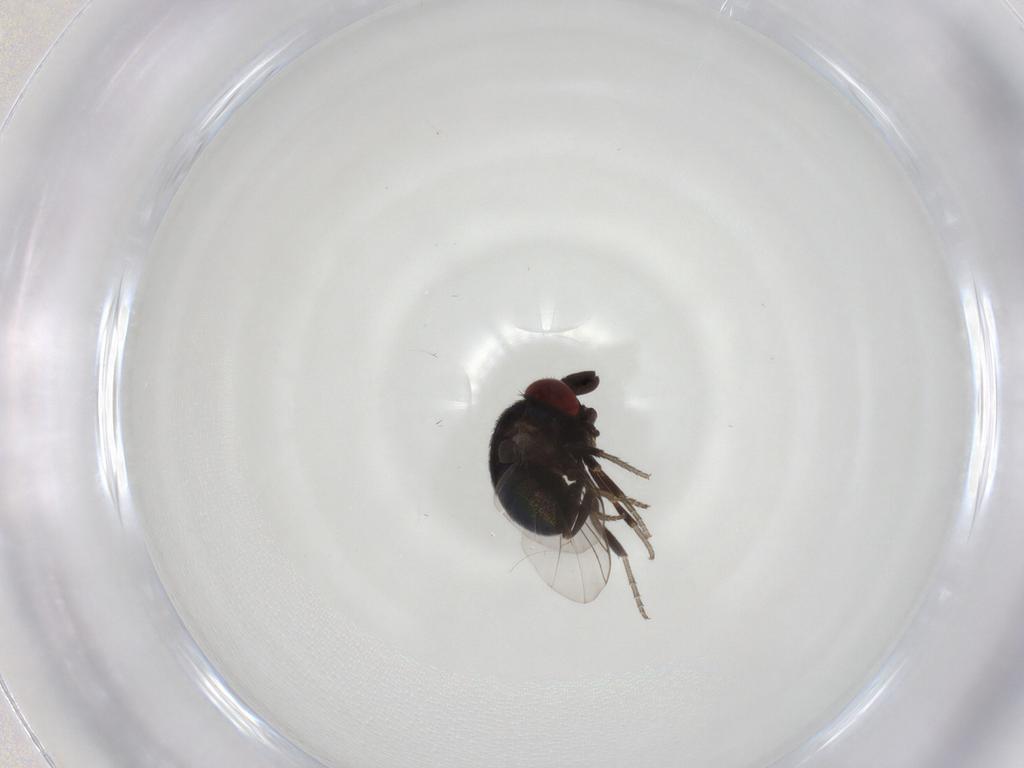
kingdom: Animalia
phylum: Arthropoda
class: Insecta
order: Diptera
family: Cryptochetidae
